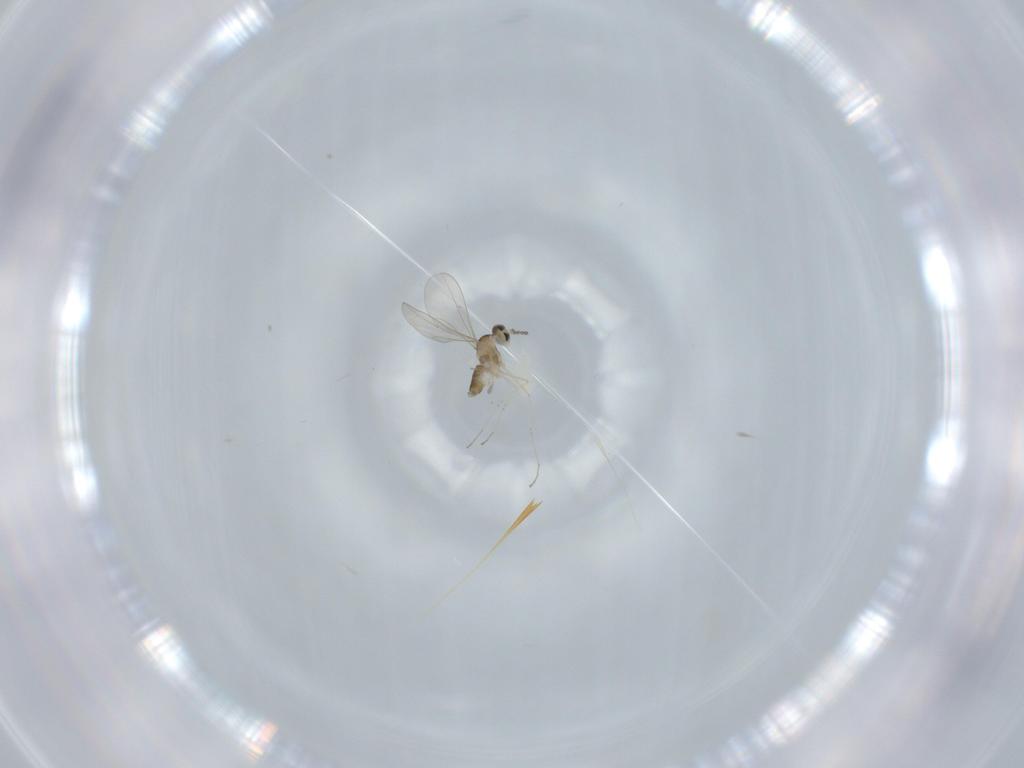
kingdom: Animalia
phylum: Arthropoda
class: Insecta
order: Diptera
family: Cecidomyiidae
